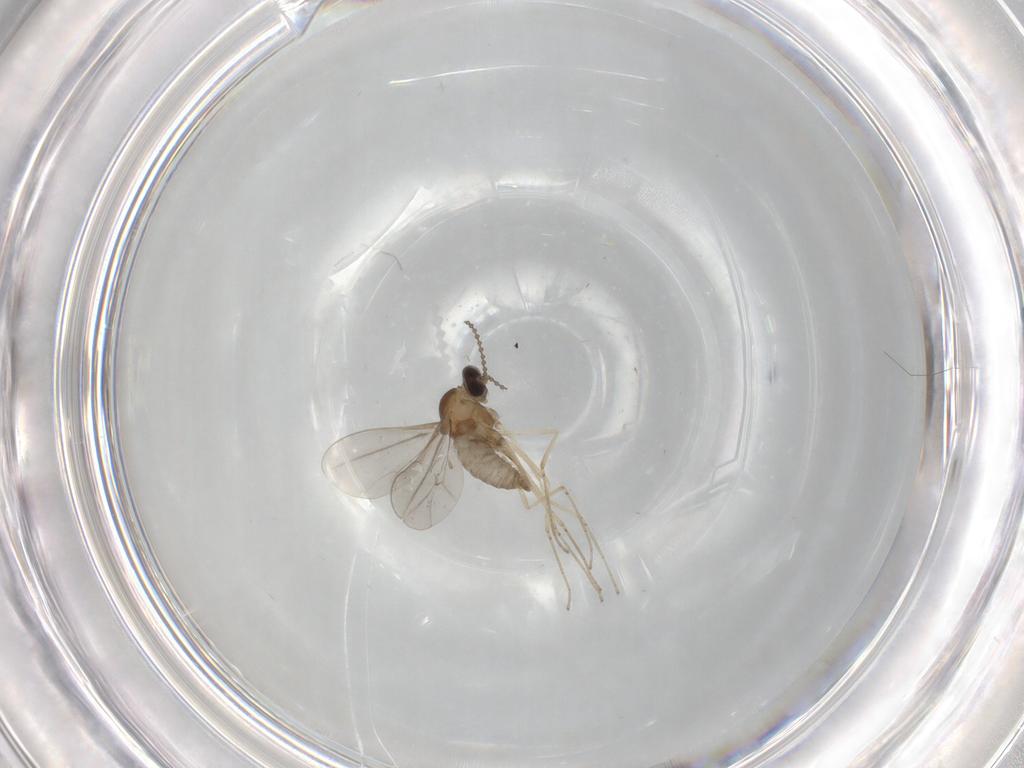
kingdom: Animalia
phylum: Arthropoda
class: Insecta
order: Diptera
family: Cecidomyiidae
